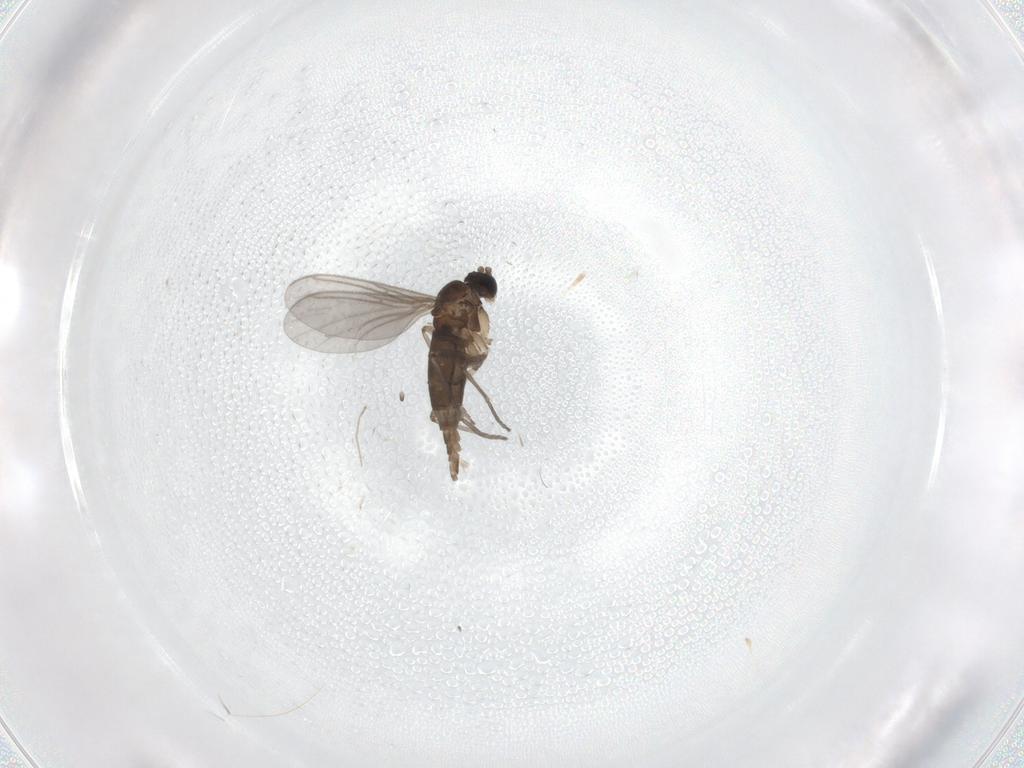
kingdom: Animalia
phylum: Arthropoda
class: Insecta
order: Diptera
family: Sciaridae
